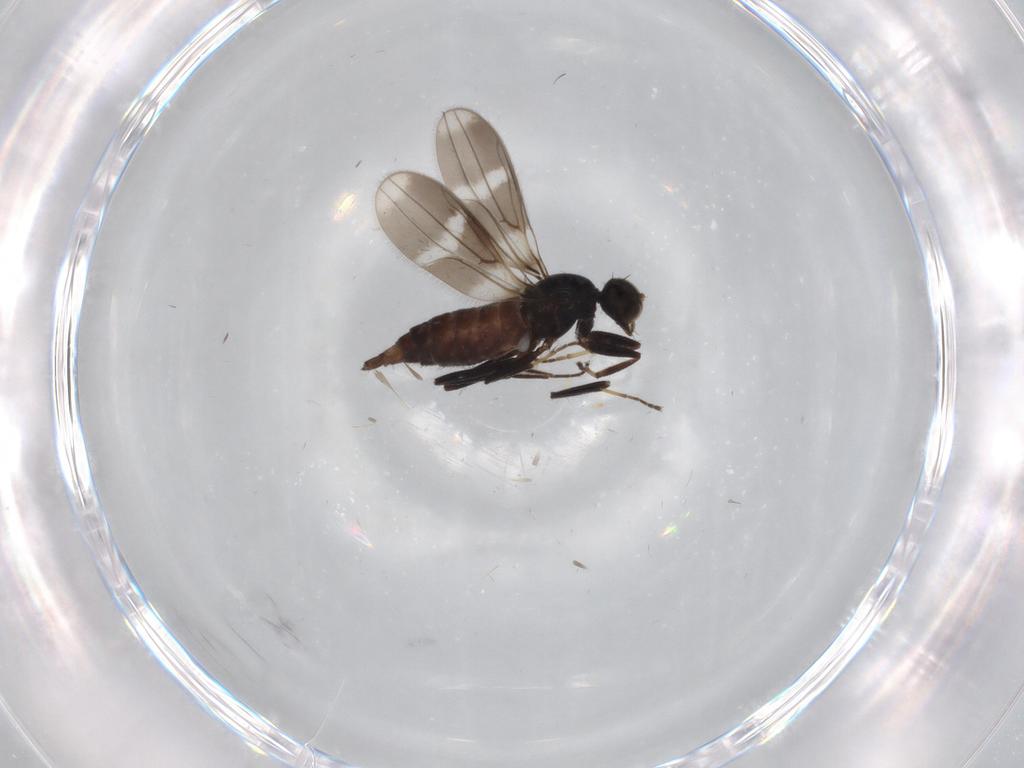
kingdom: Animalia
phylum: Arthropoda
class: Insecta
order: Diptera
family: Hybotidae
